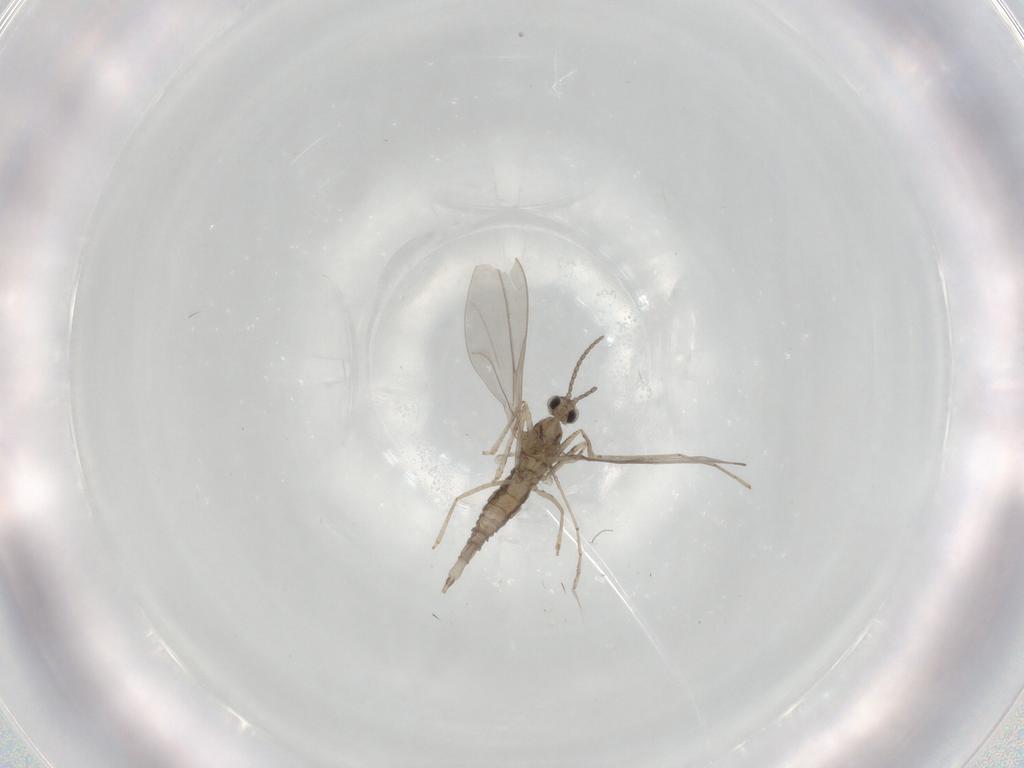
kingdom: Animalia
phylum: Arthropoda
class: Insecta
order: Diptera
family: Cecidomyiidae
